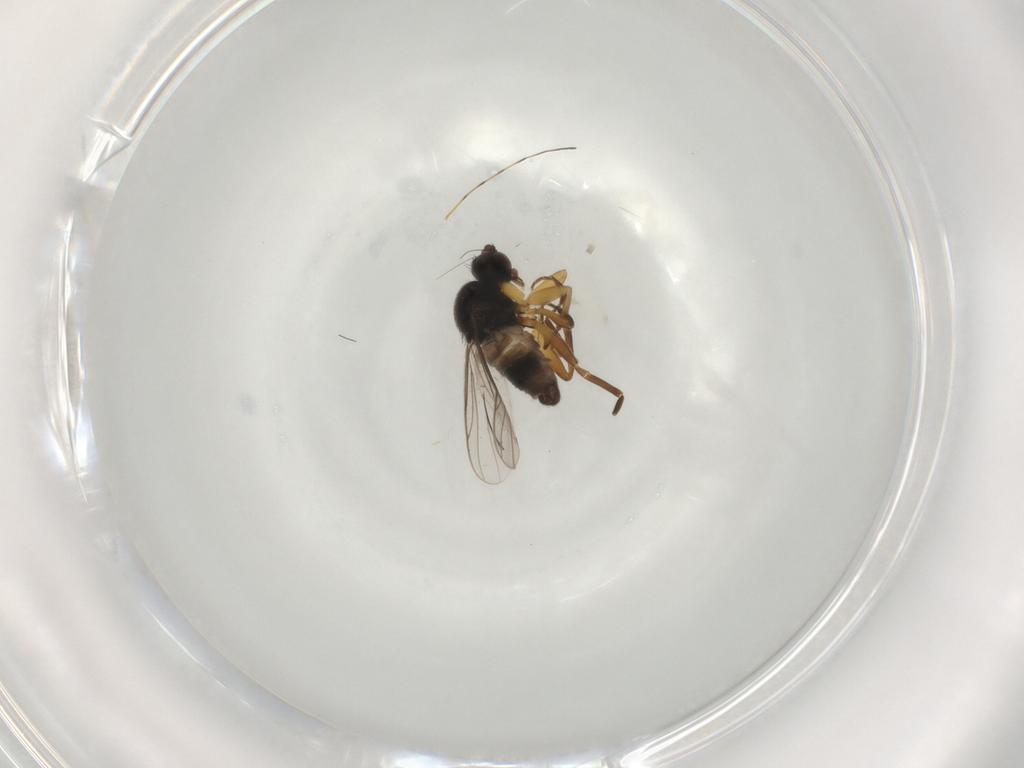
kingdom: Animalia
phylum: Arthropoda
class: Insecta
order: Diptera
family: Hybotidae
